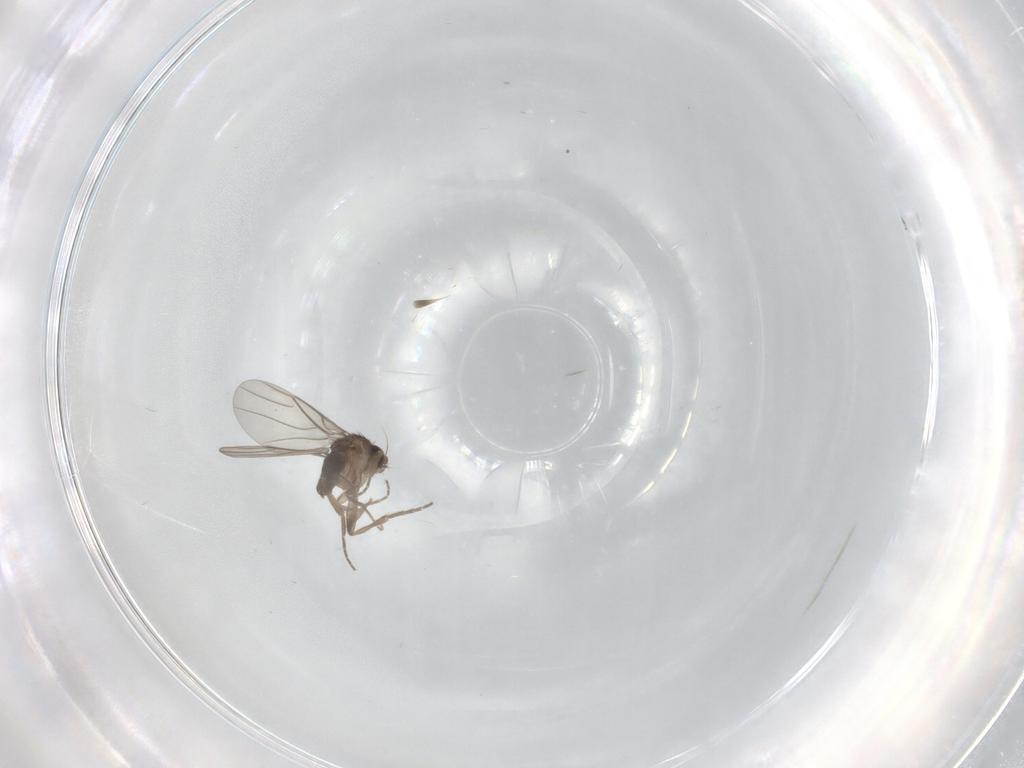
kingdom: Animalia
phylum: Arthropoda
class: Insecta
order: Diptera
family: Phoridae
